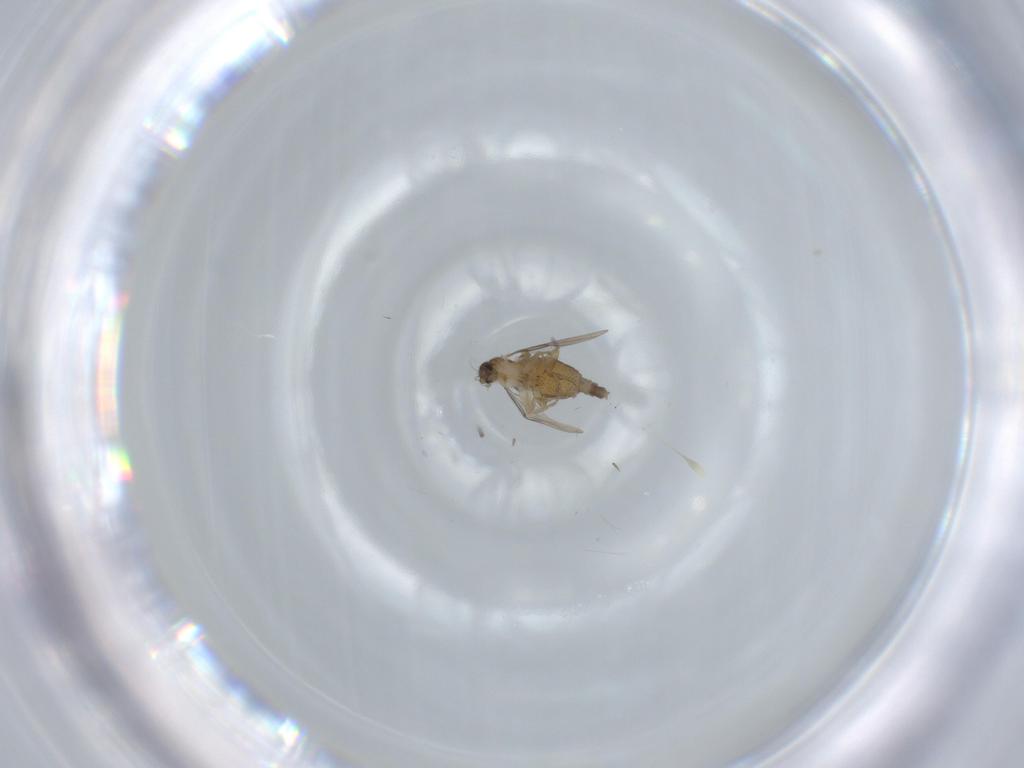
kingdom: Animalia
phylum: Arthropoda
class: Insecta
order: Diptera
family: Phoridae
